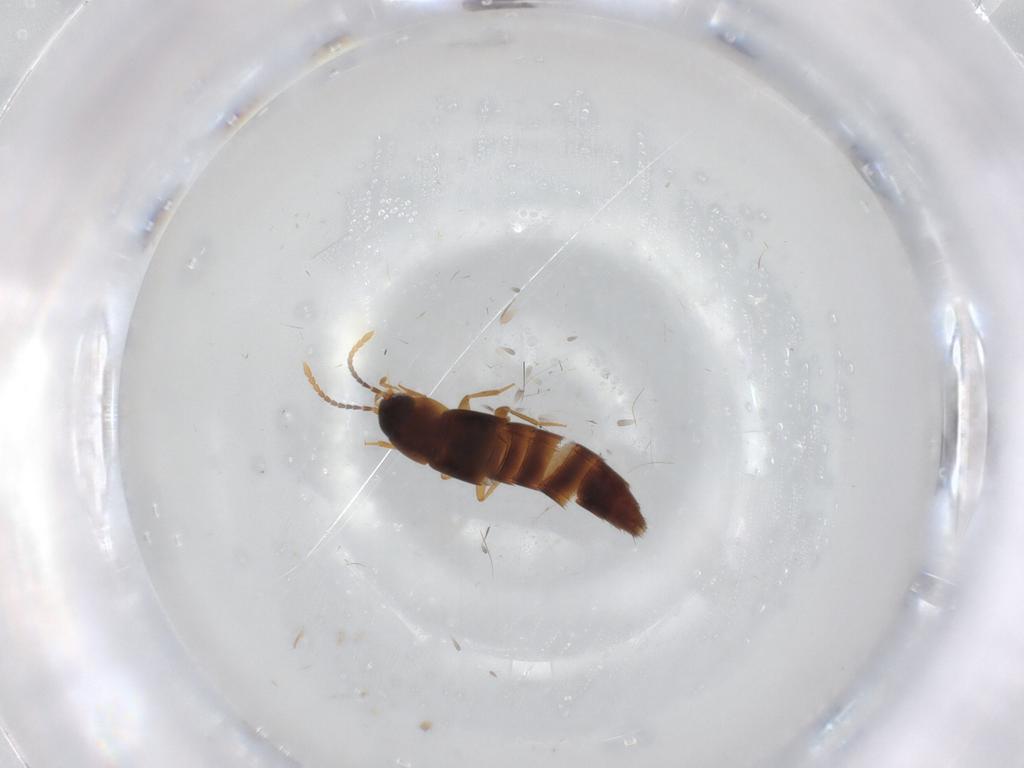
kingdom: Animalia
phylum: Arthropoda
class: Insecta
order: Coleoptera
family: Staphylinidae
